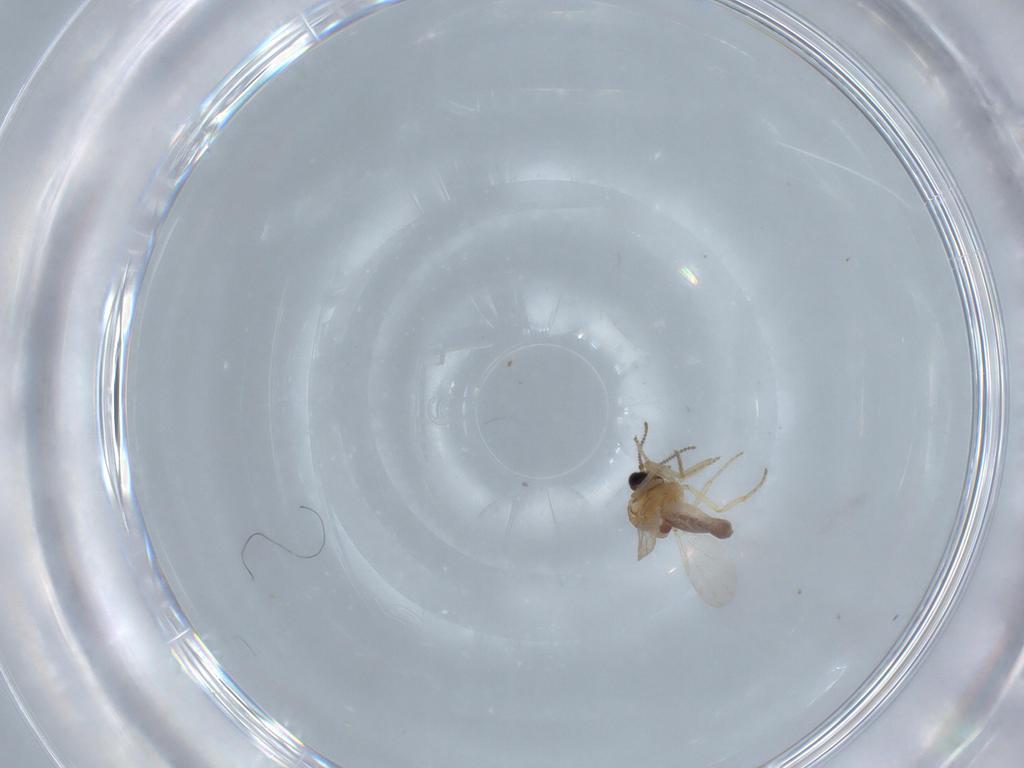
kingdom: Animalia
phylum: Arthropoda
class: Insecta
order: Diptera
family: Ceratopogonidae
